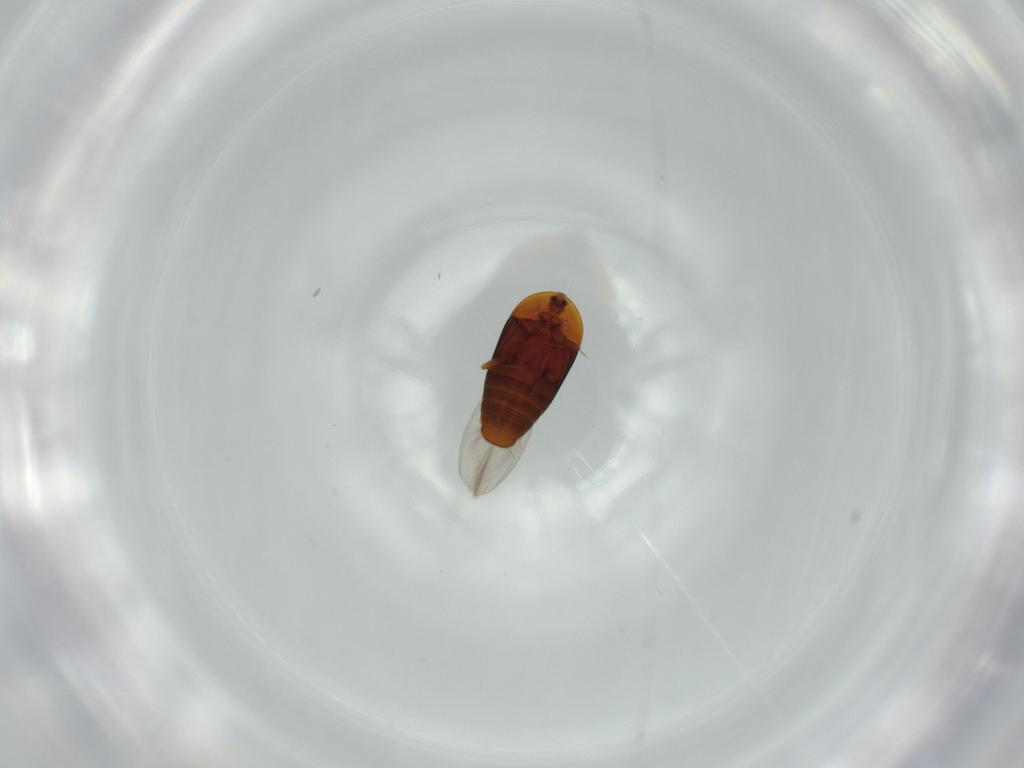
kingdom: Animalia
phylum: Arthropoda
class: Insecta
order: Coleoptera
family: Corylophidae
